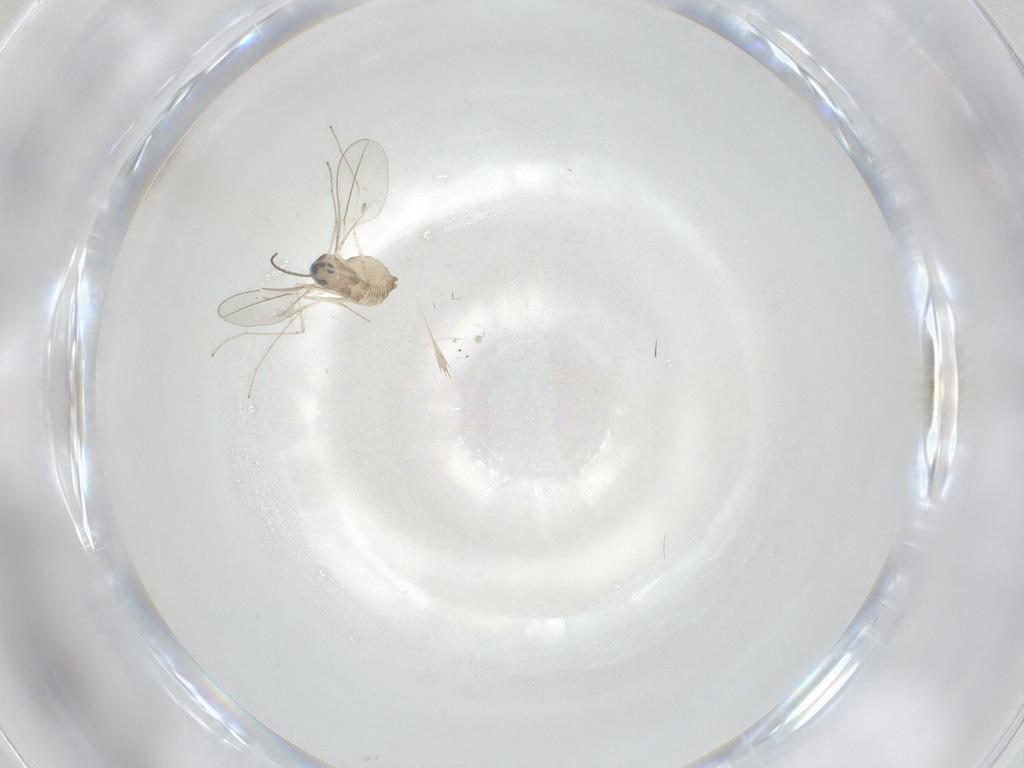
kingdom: Animalia
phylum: Arthropoda
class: Insecta
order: Diptera
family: Cecidomyiidae
